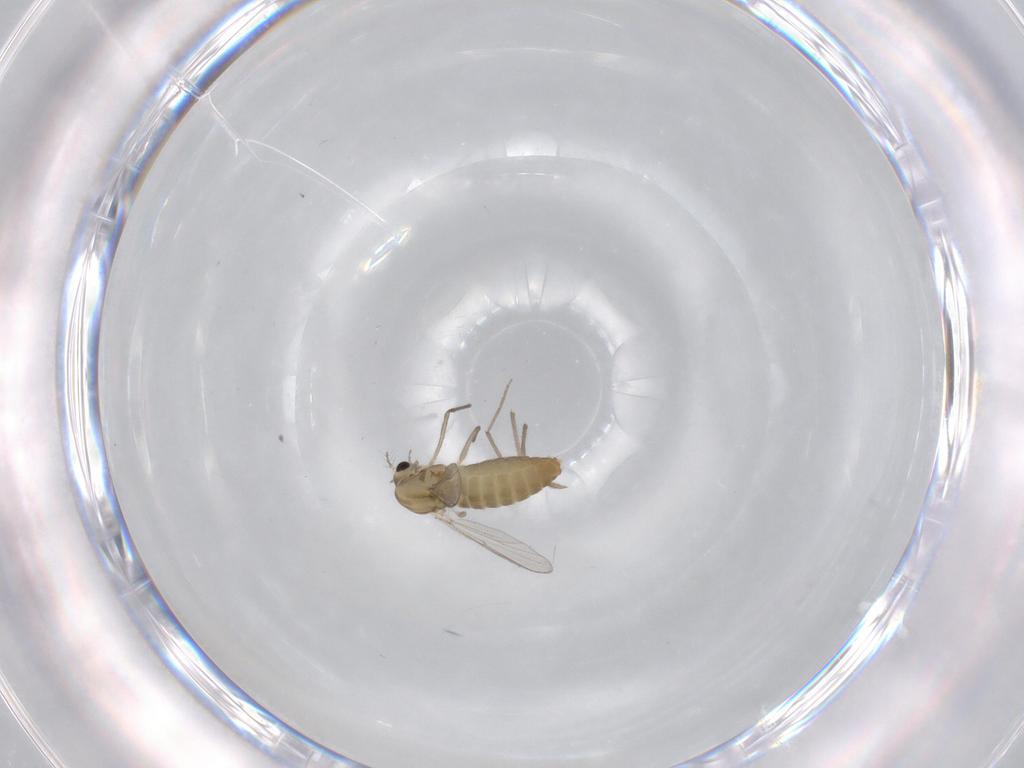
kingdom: Animalia
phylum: Arthropoda
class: Insecta
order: Diptera
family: Chironomidae
